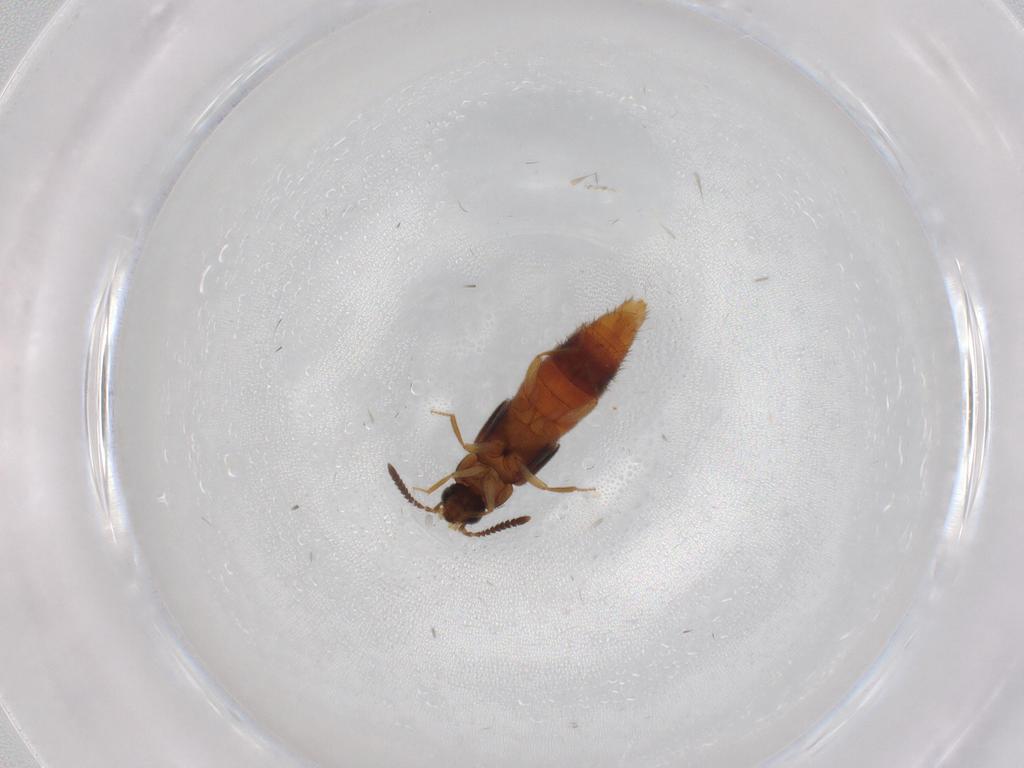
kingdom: Animalia
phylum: Arthropoda
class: Insecta
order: Coleoptera
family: Staphylinidae
